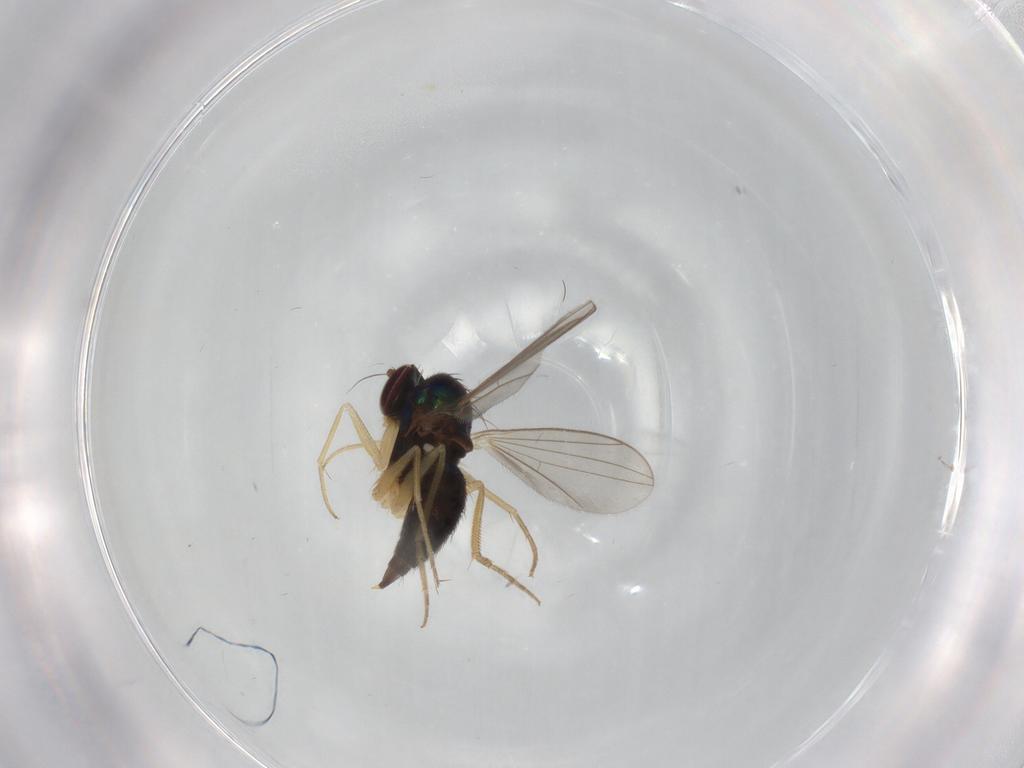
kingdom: Animalia
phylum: Arthropoda
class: Insecta
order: Diptera
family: Dolichopodidae
